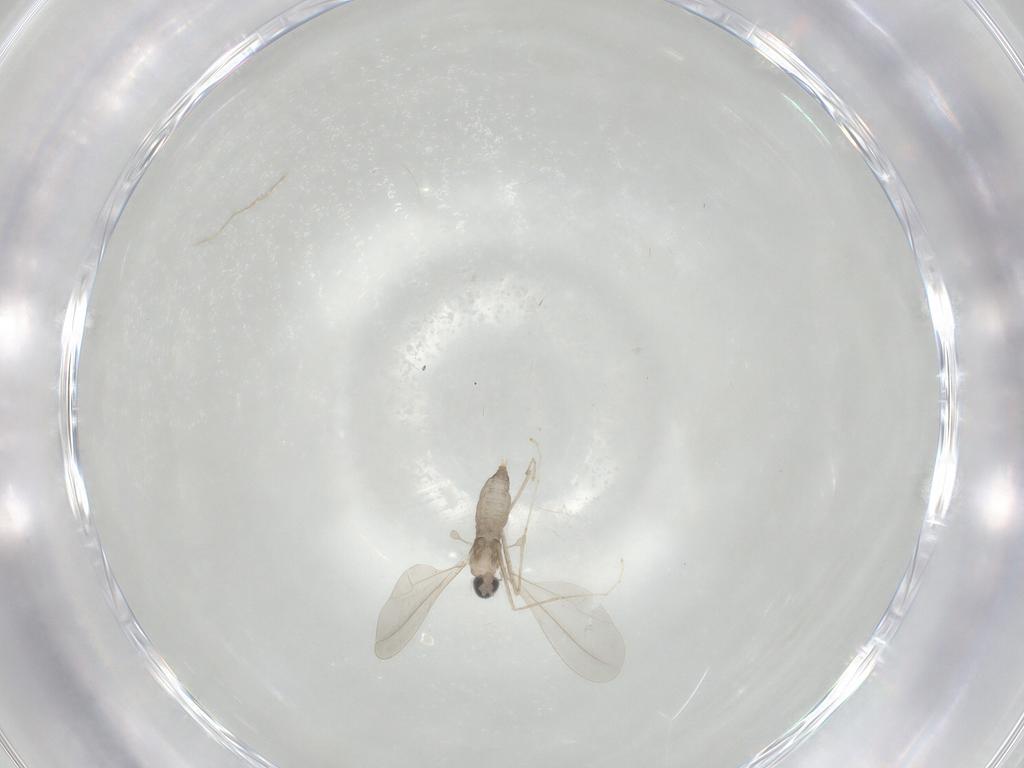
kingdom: Animalia
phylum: Arthropoda
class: Insecta
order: Diptera
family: Cecidomyiidae
